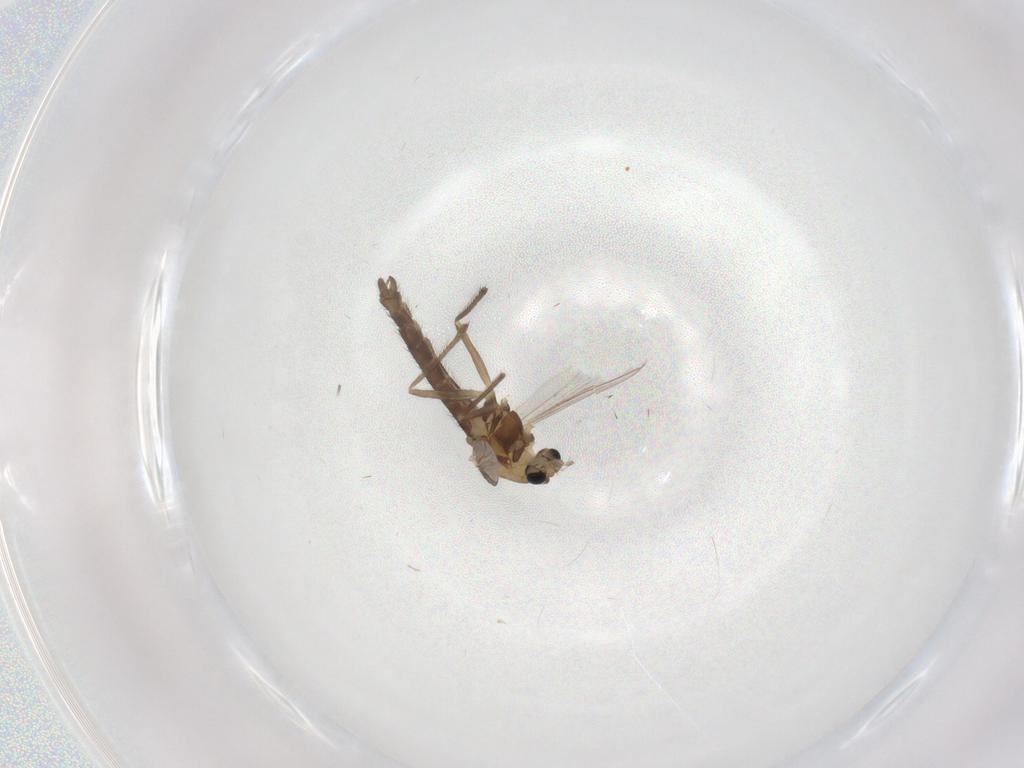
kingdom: Animalia
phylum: Arthropoda
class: Insecta
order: Diptera
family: Chironomidae
